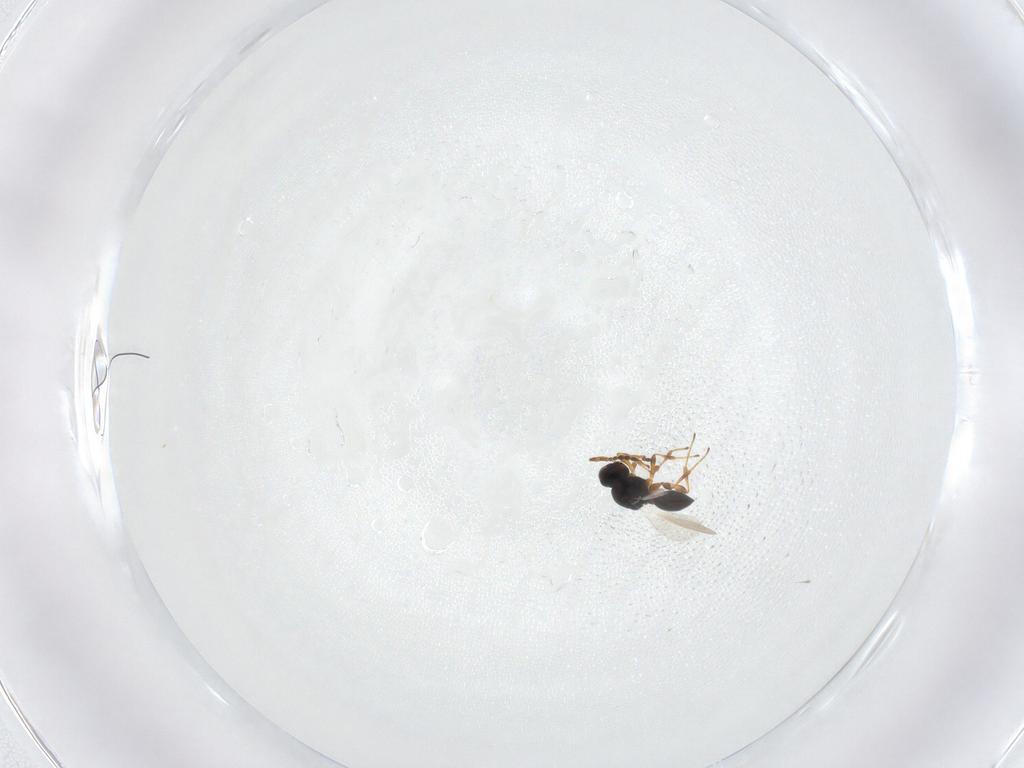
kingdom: Animalia
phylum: Arthropoda
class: Insecta
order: Hymenoptera
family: Platygastridae
